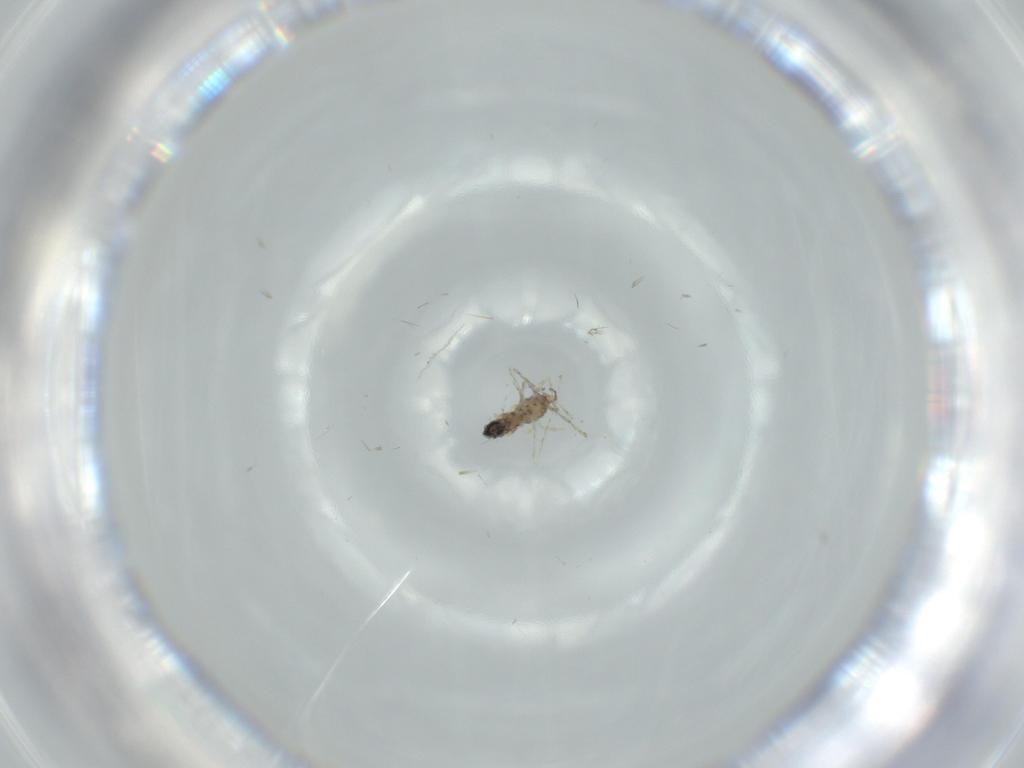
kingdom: Animalia
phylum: Arthropoda
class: Insecta
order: Diptera
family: Cecidomyiidae
